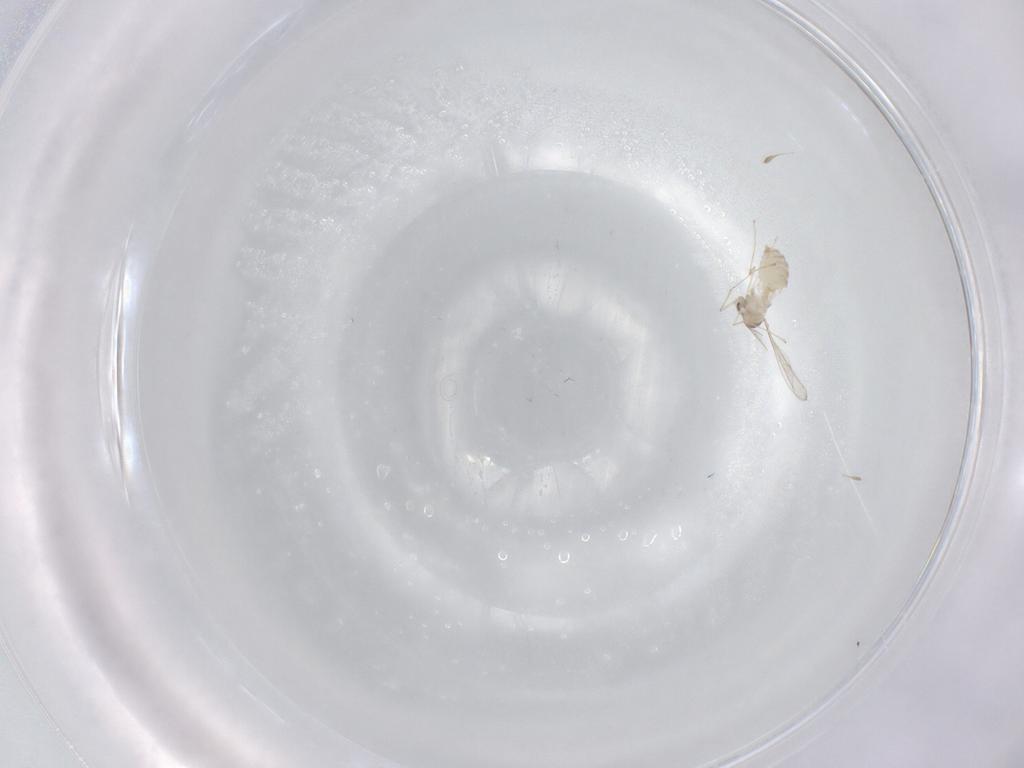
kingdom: Animalia
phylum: Arthropoda
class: Insecta
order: Diptera
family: Cecidomyiidae
